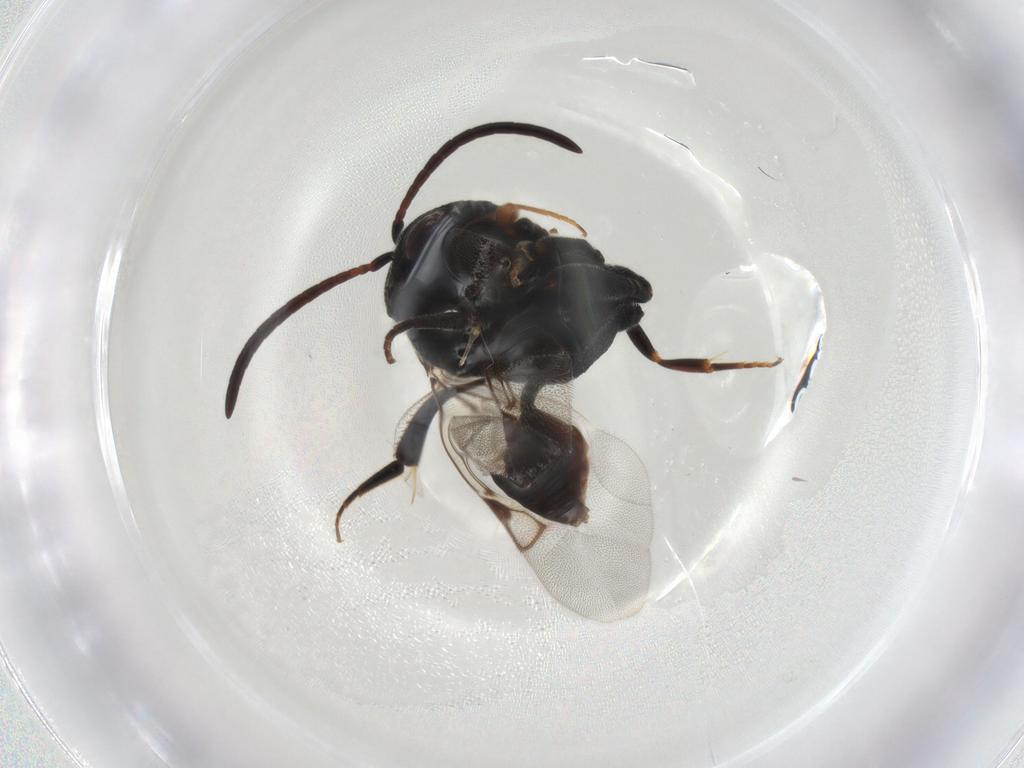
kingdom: Animalia
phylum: Arthropoda
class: Insecta
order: Hymenoptera
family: Evaniidae
